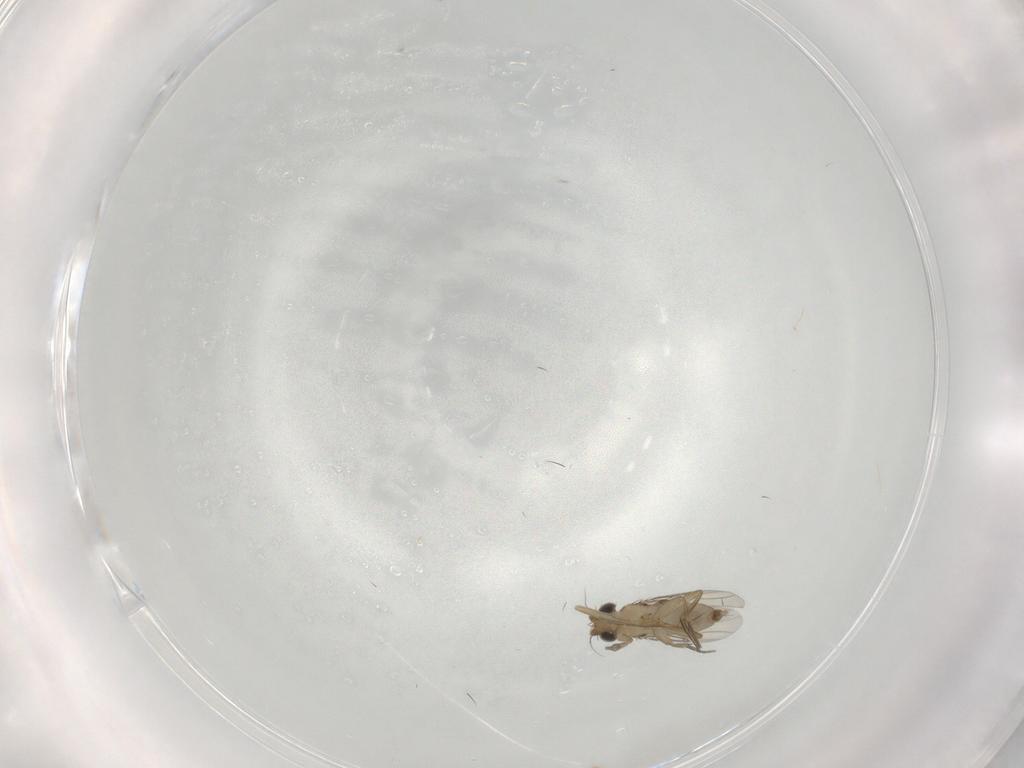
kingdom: Animalia
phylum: Arthropoda
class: Insecta
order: Diptera
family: Phoridae
